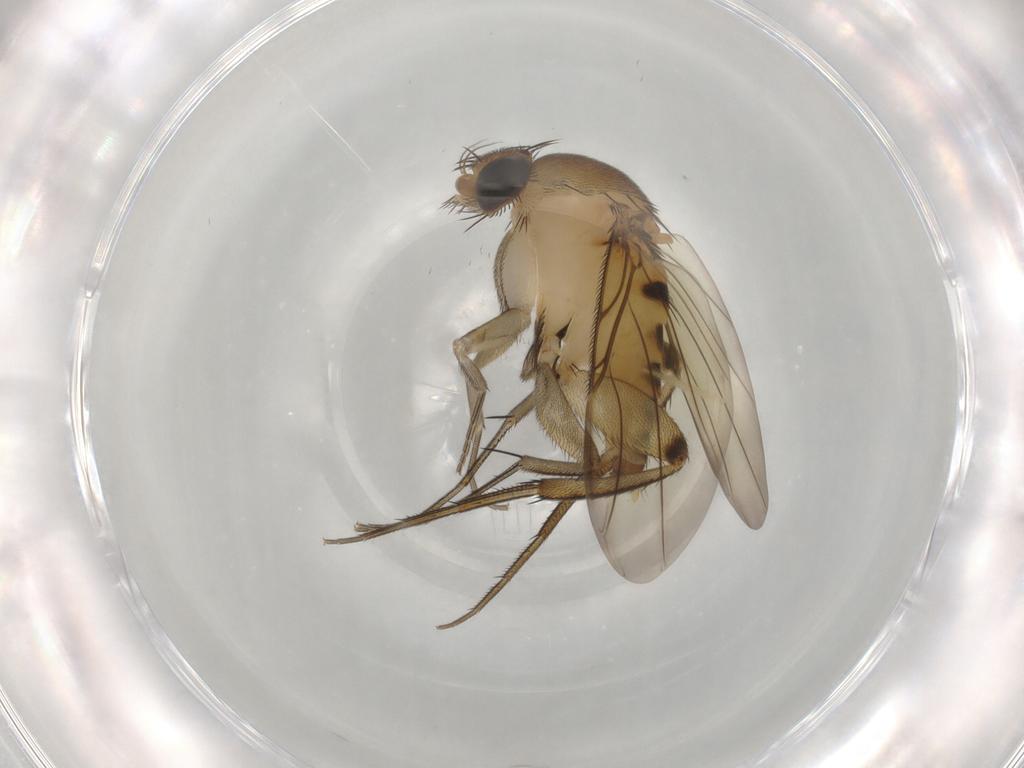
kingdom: Animalia
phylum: Arthropoda
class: Insecta
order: Diptera
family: Phoridae
